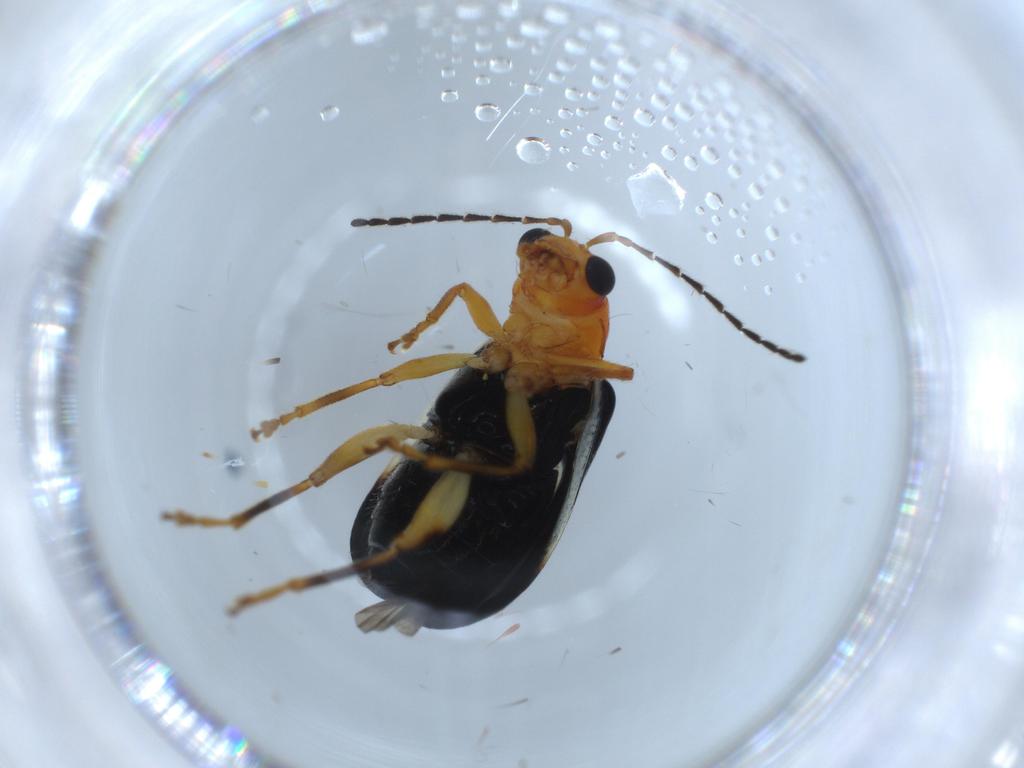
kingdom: Animalia
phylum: Arthropoda
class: Insecta
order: Coleoptera
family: Chrysomelidae
